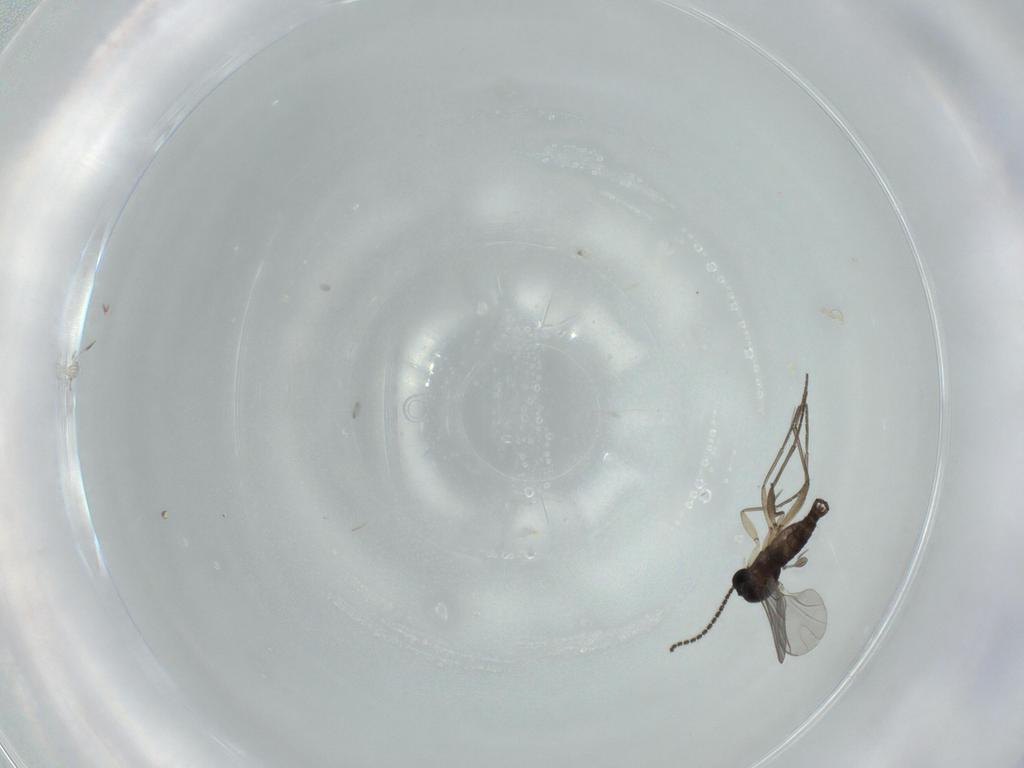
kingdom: Animalia
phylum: Arthropoda
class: Insecta
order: Diptera
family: Sciaridae
